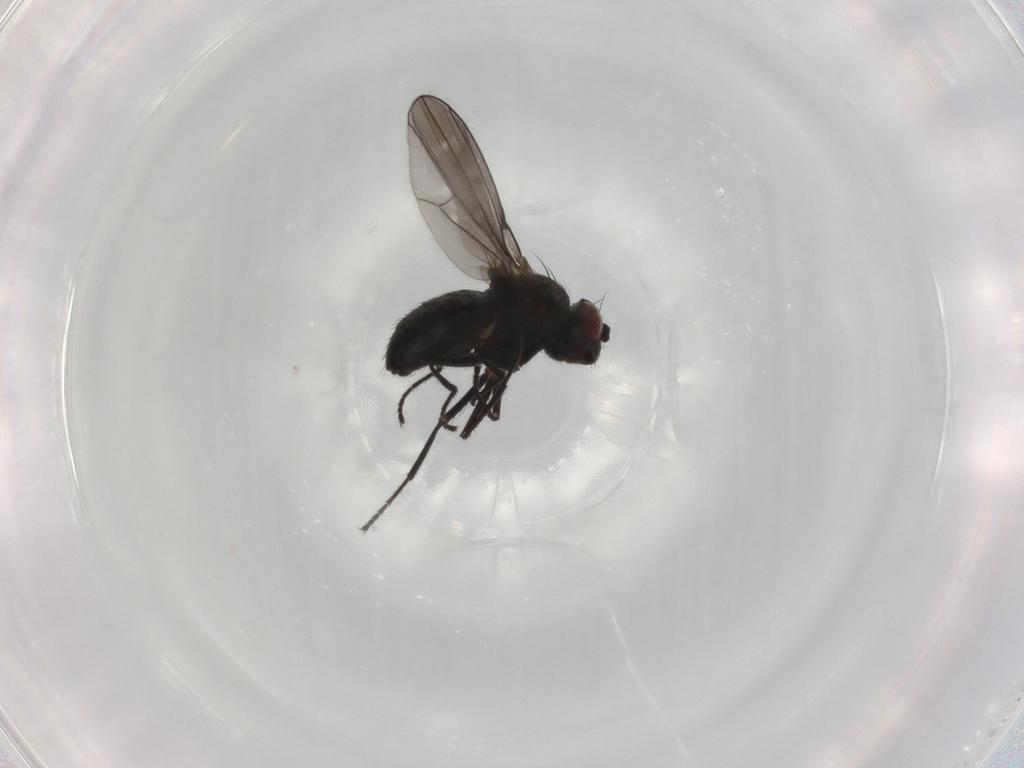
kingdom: Animalia
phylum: Arthropoda
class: Insecta
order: Diptera
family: Ephydridae
